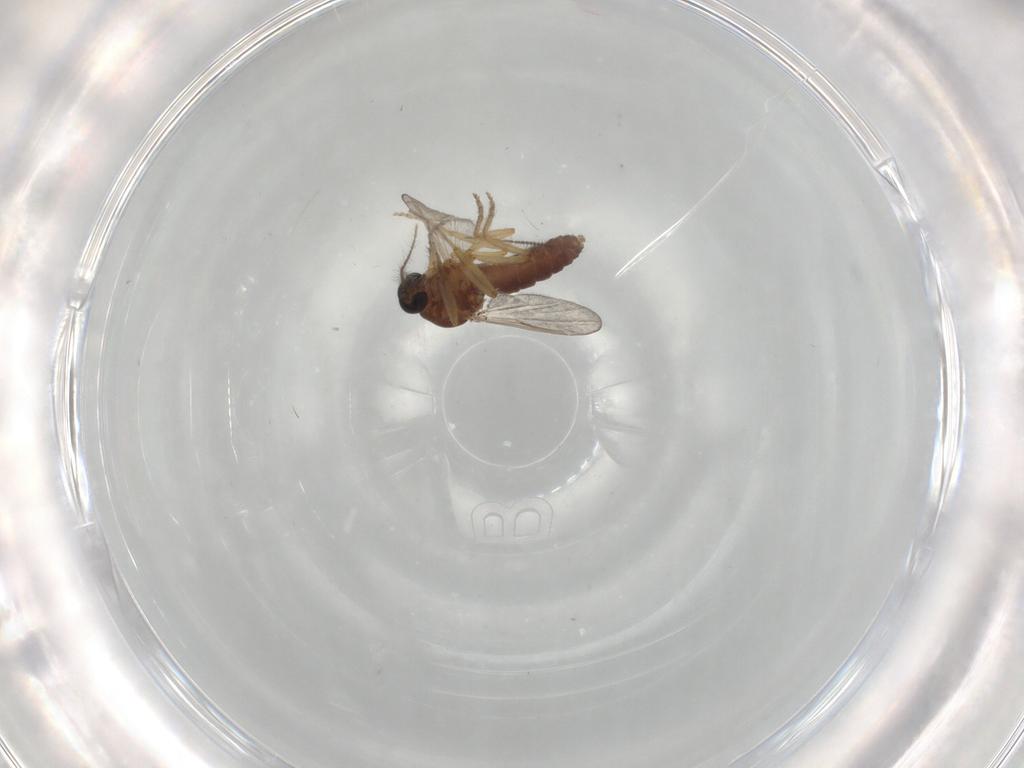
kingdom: Animalia
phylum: Arthropoda
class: Insecta
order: Diptera
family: Ceratopogonidae
